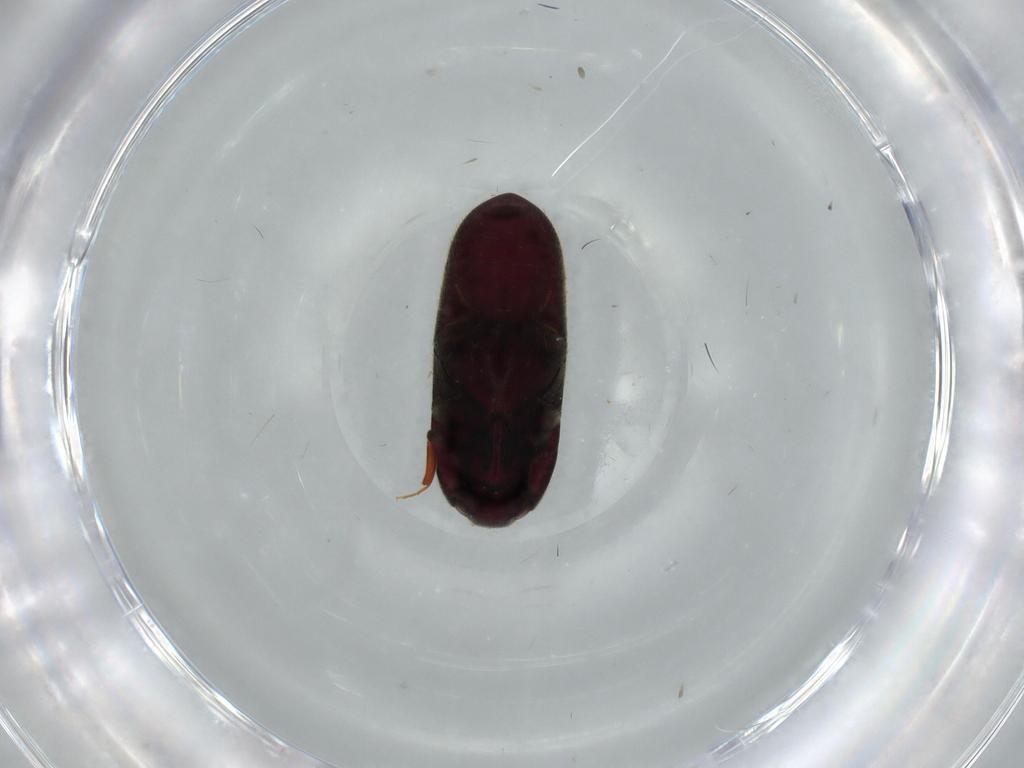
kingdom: Animalia
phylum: Arthropoda
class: Insecta
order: Coleoptera
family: Throscidae
